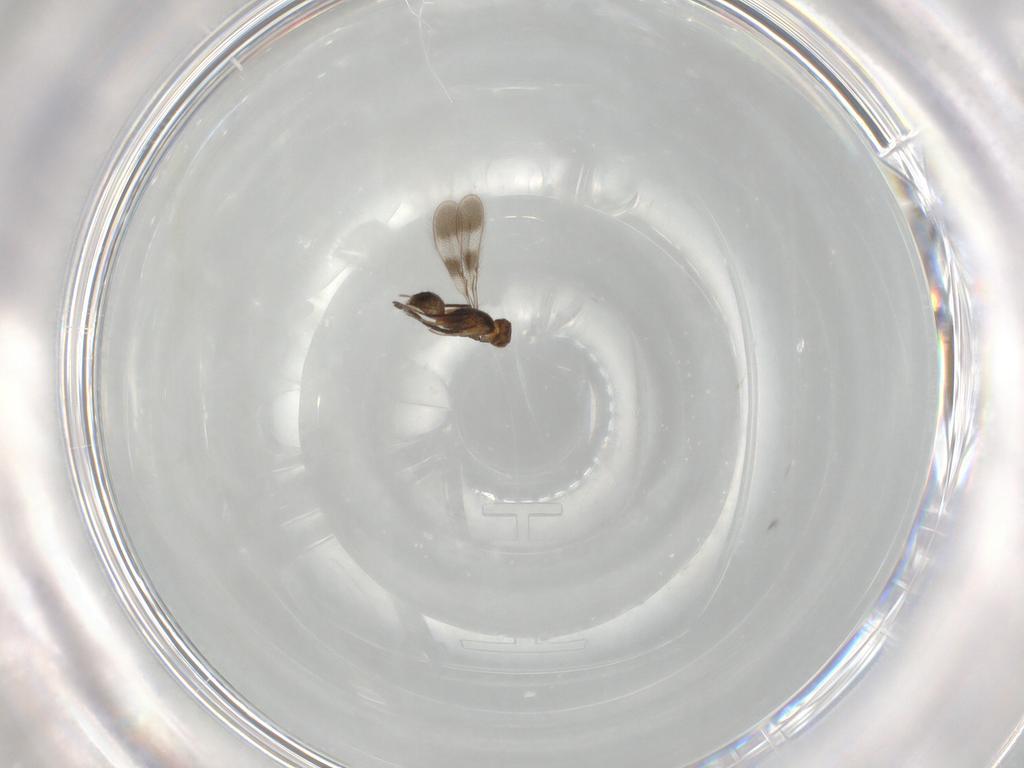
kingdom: Animalia
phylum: Arthropoda
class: Insecta
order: Hymenoptera
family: Mymaridae
